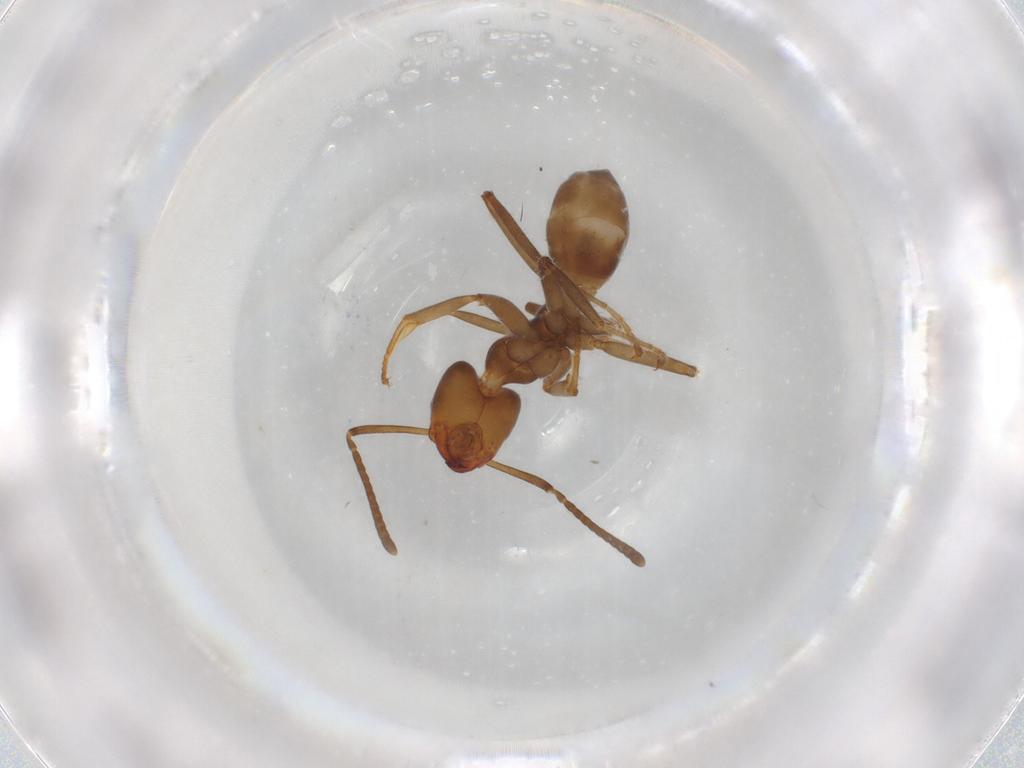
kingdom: Animalia
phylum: Arthropoda
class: Insecta
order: Hymenoptera
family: Formicidae
